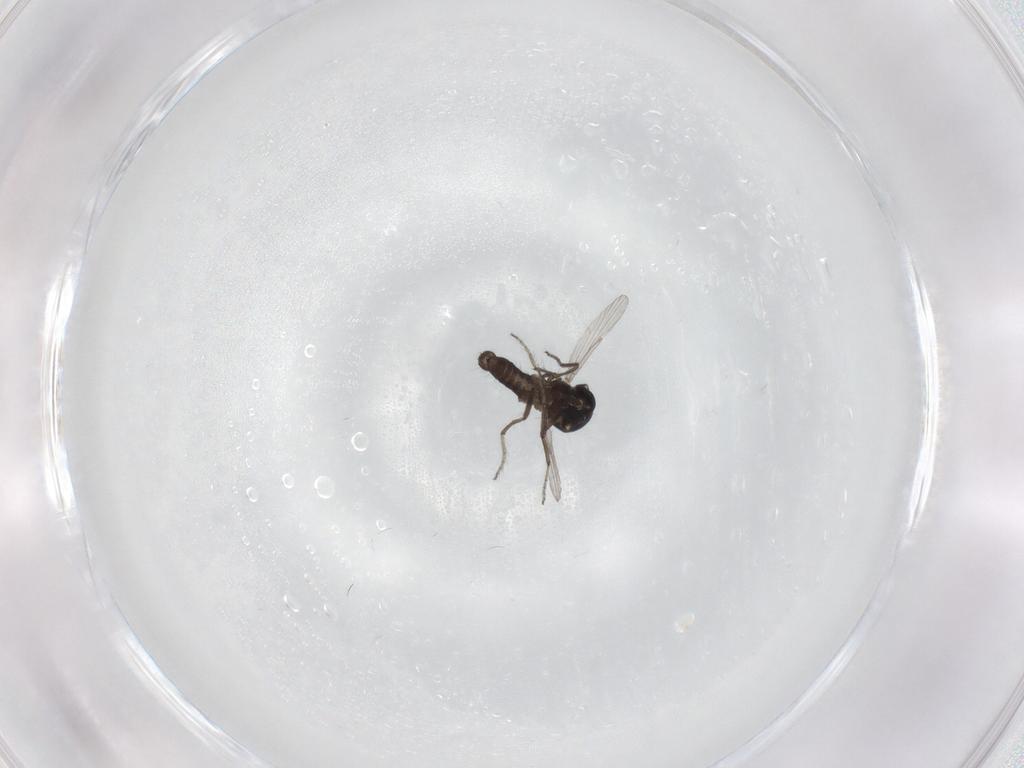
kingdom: Animalia
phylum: Arthropoda
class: Insecta
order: Diptera
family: Ceratopogonidae
